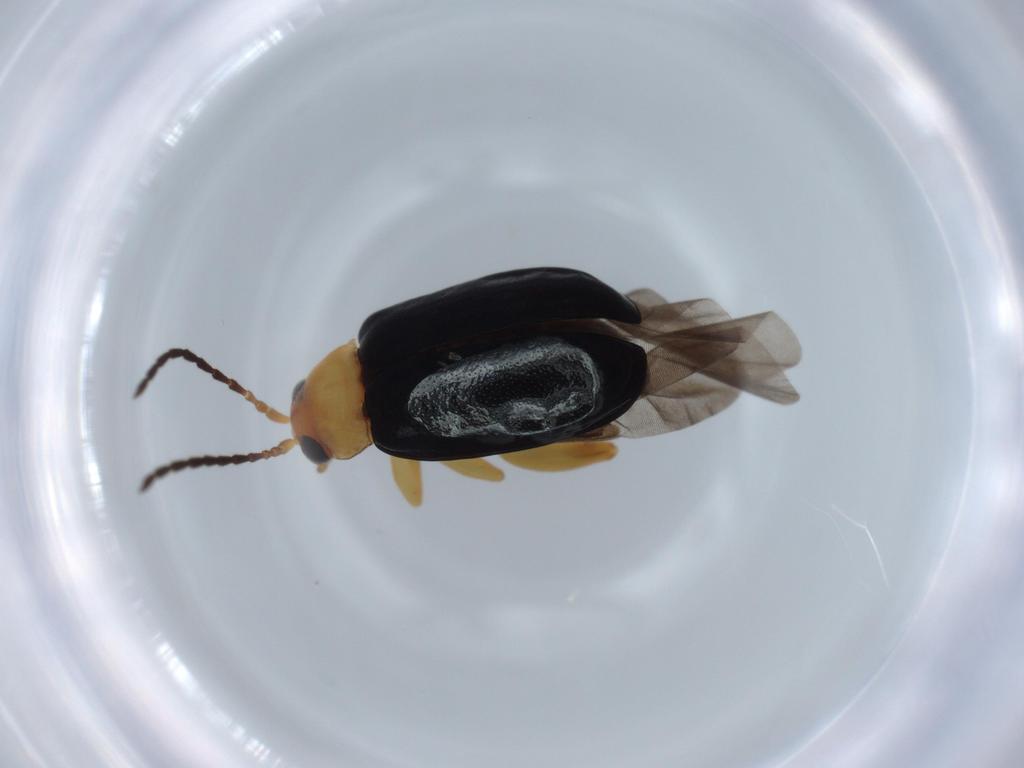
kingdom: Animalia
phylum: Arthropoda
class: Insecta
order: Coleoptera
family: Chrysomelidae
